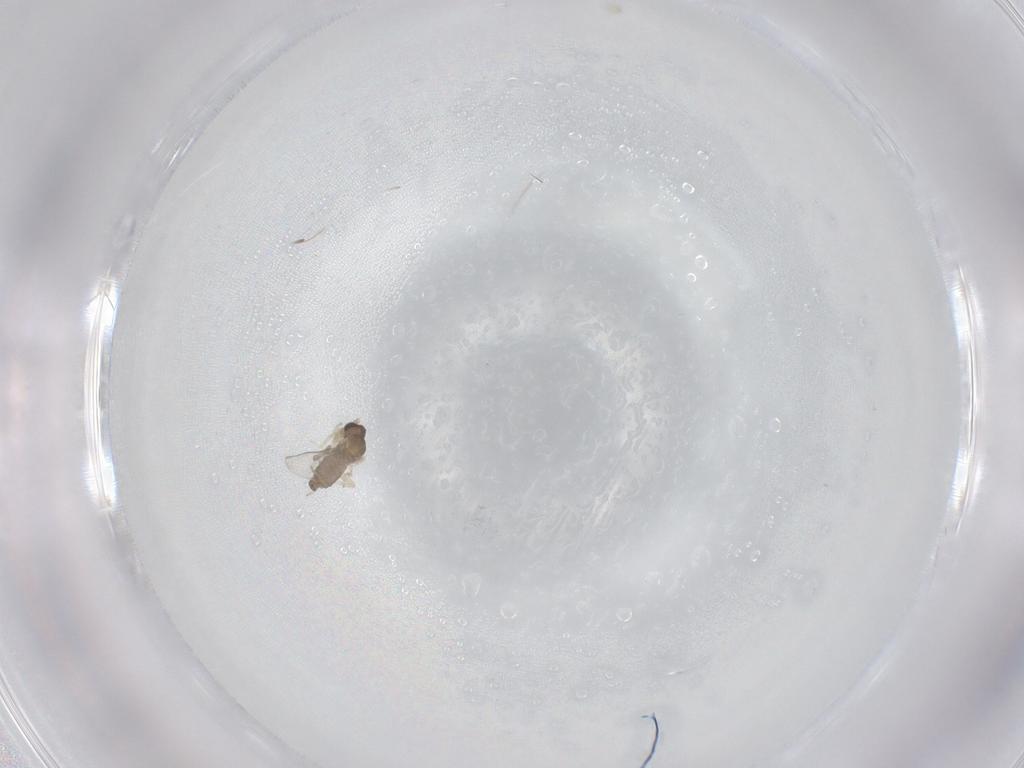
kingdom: Animalia
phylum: Arthropoda
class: Insecta
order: Diptera
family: Cecidomyiidae
